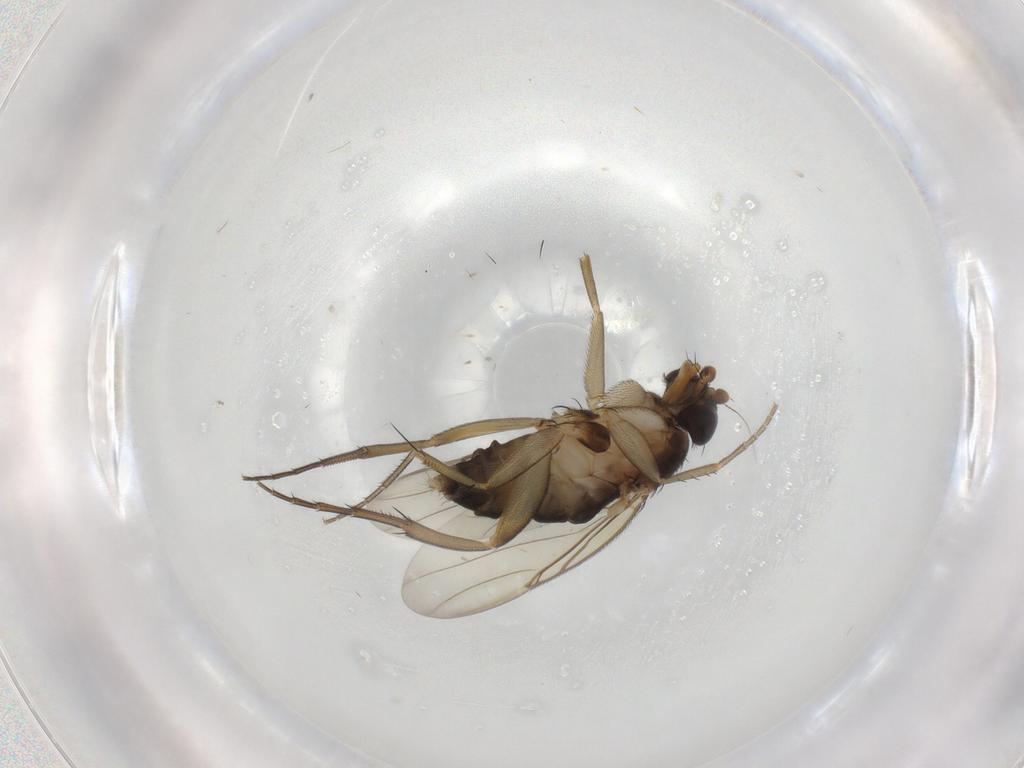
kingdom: Animalia
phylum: Arthropoda
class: Insecta
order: Diptera
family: Phoridae
